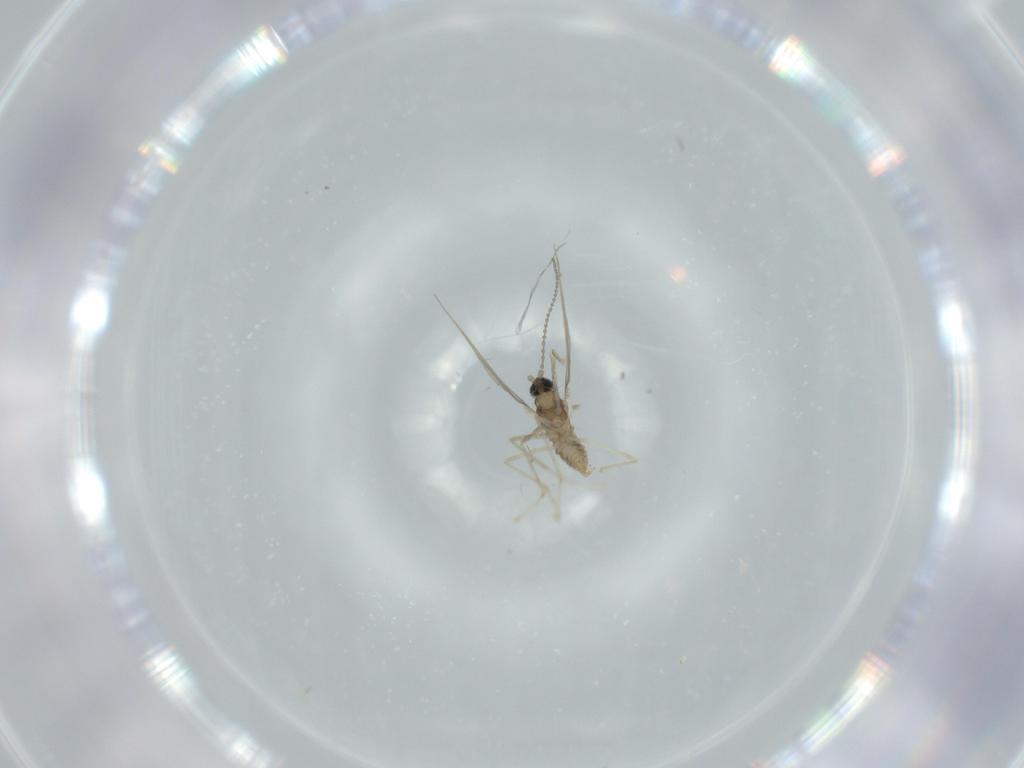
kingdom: Animalia
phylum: Arthropoda
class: Insecta
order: Diptera
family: Cecidomyiidae
